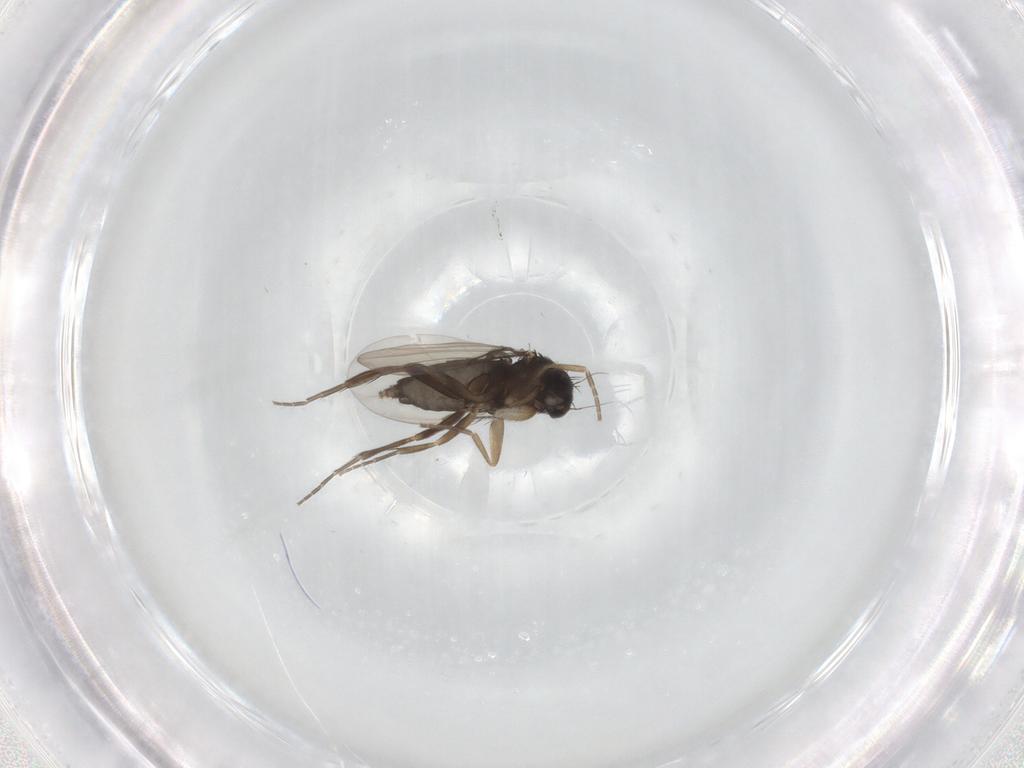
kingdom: Animalia
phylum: Arthropoda
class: Insecta
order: Diptera
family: Phoridae
